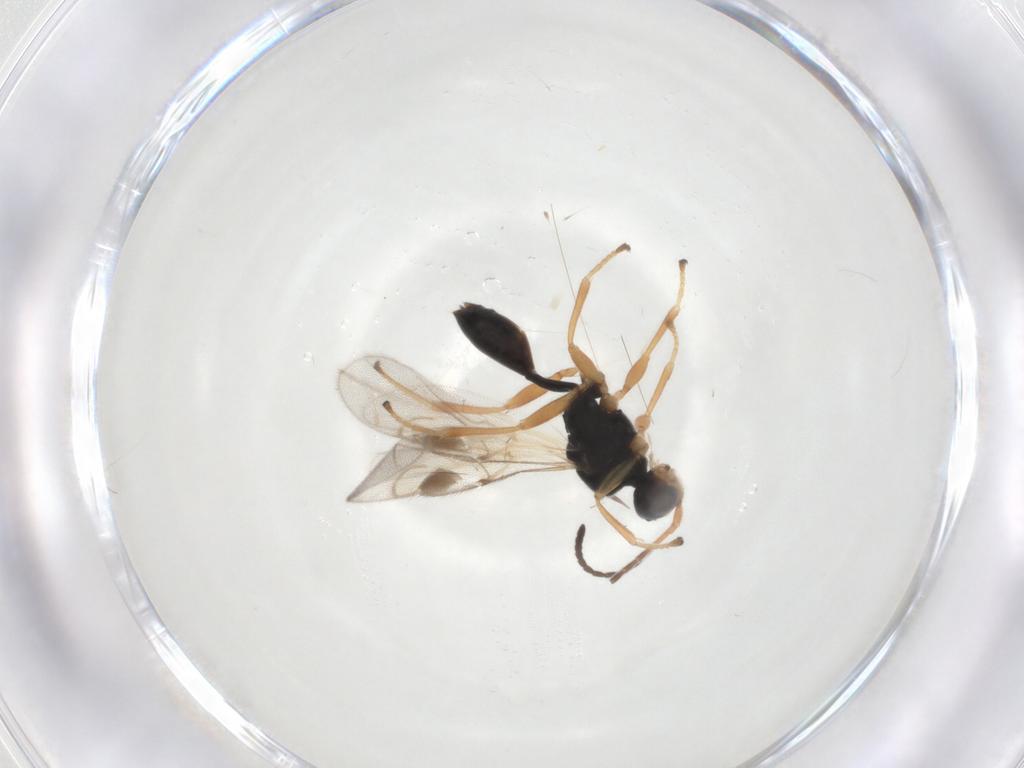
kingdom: Animalia
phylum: Arthropoda
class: Insecta
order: Hymenoptera
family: Braconidae
